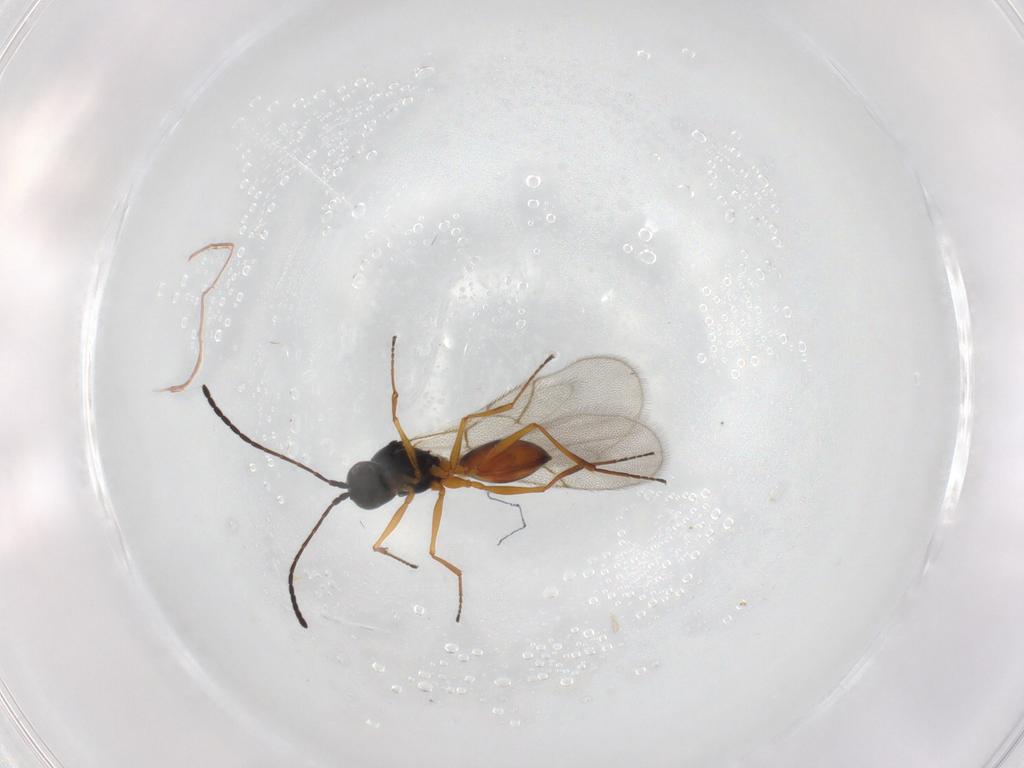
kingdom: Animalia
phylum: Arthropoda
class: Insecta
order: Hymenoptera
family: Figitidae
